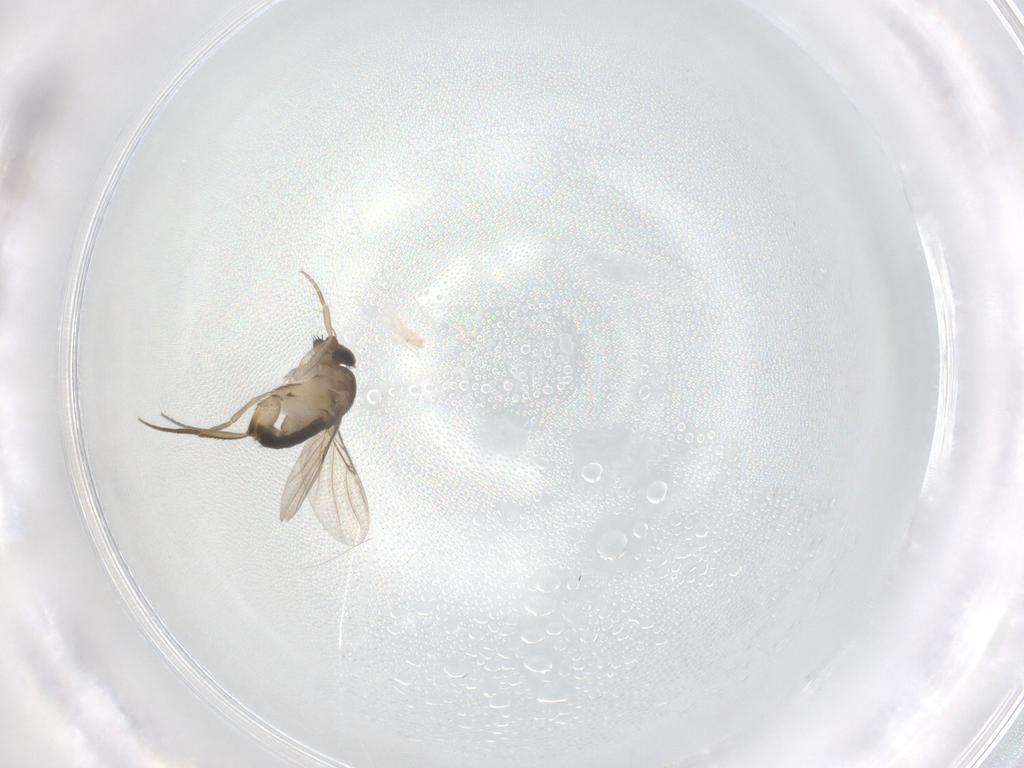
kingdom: Animalia
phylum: Arthropoda
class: Insecta
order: Diptera
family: Phoridae
